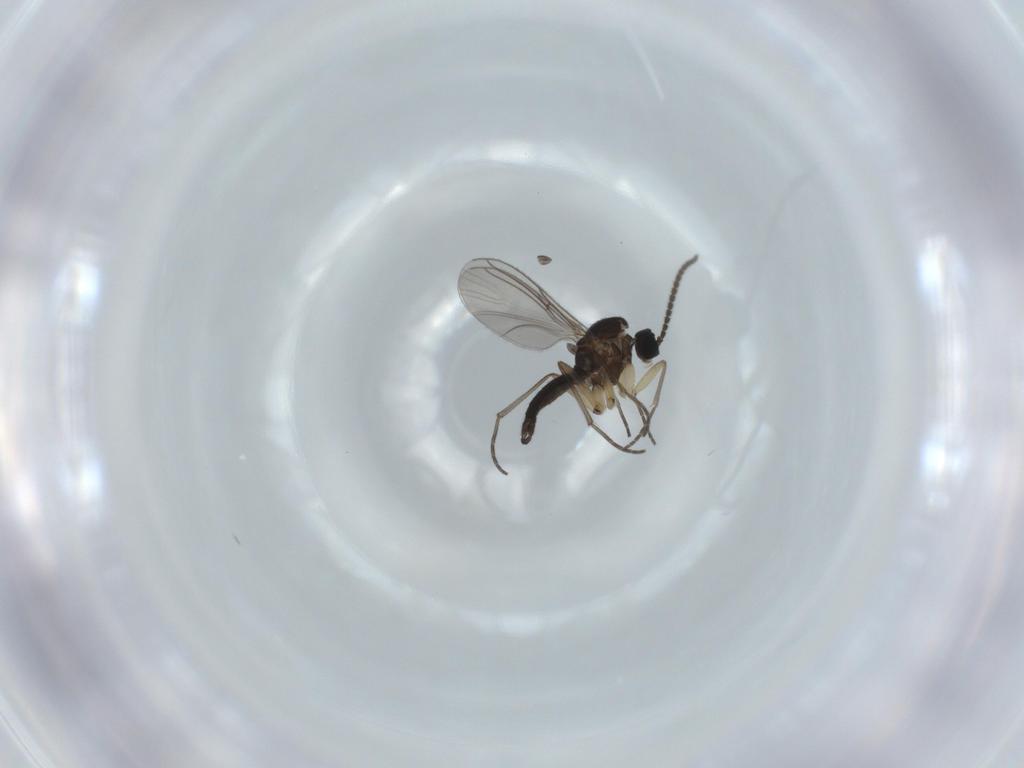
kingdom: Animalia
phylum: Arthropoda
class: Insecta
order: Diptera
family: Sciaridae
